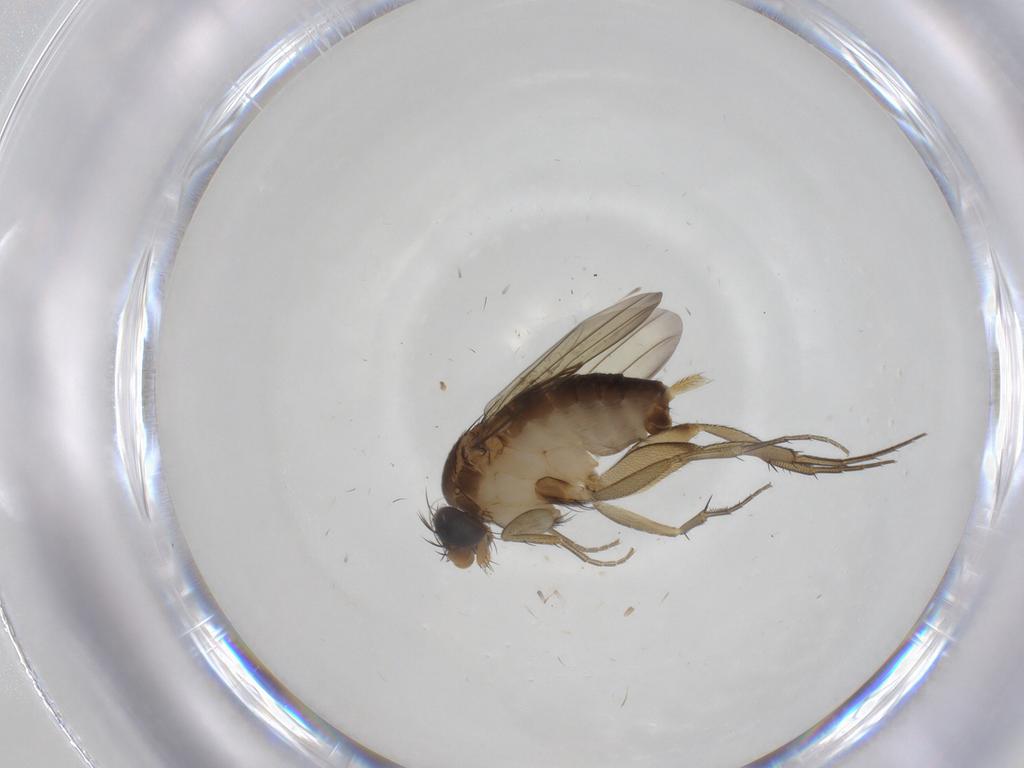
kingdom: Animalia
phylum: Arthropoda
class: Insecta
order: Diptera
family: Phoridae
